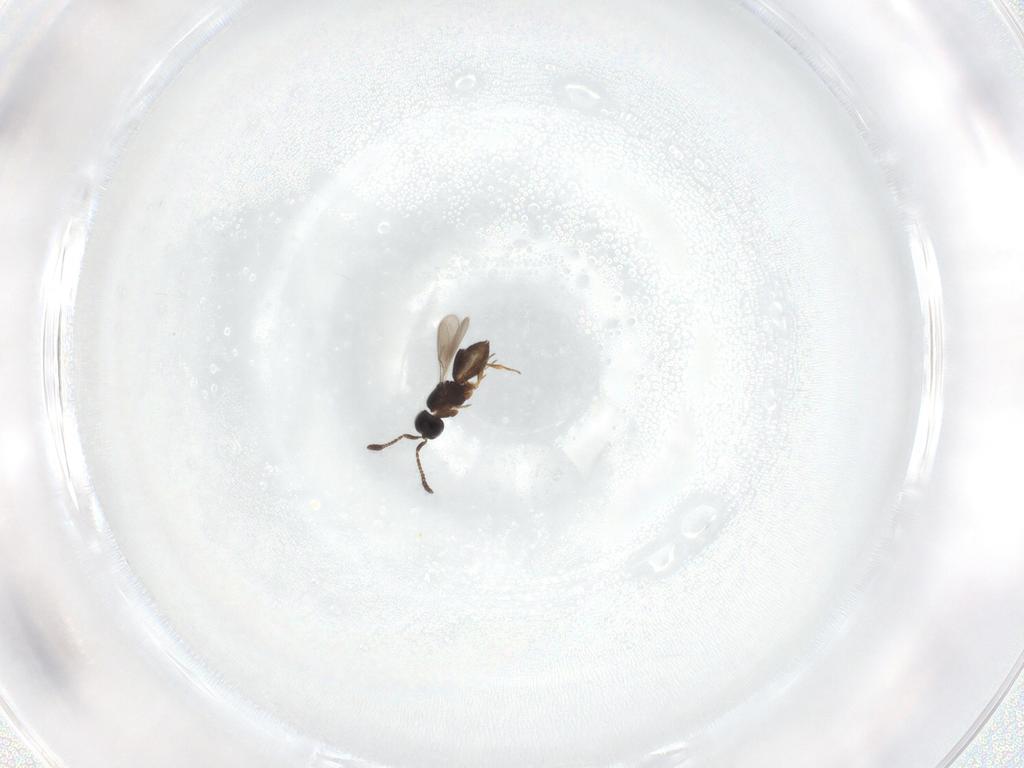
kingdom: Animalia
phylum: Arthropoda
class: Insecta
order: Hymenoptera
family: Scelionidae
